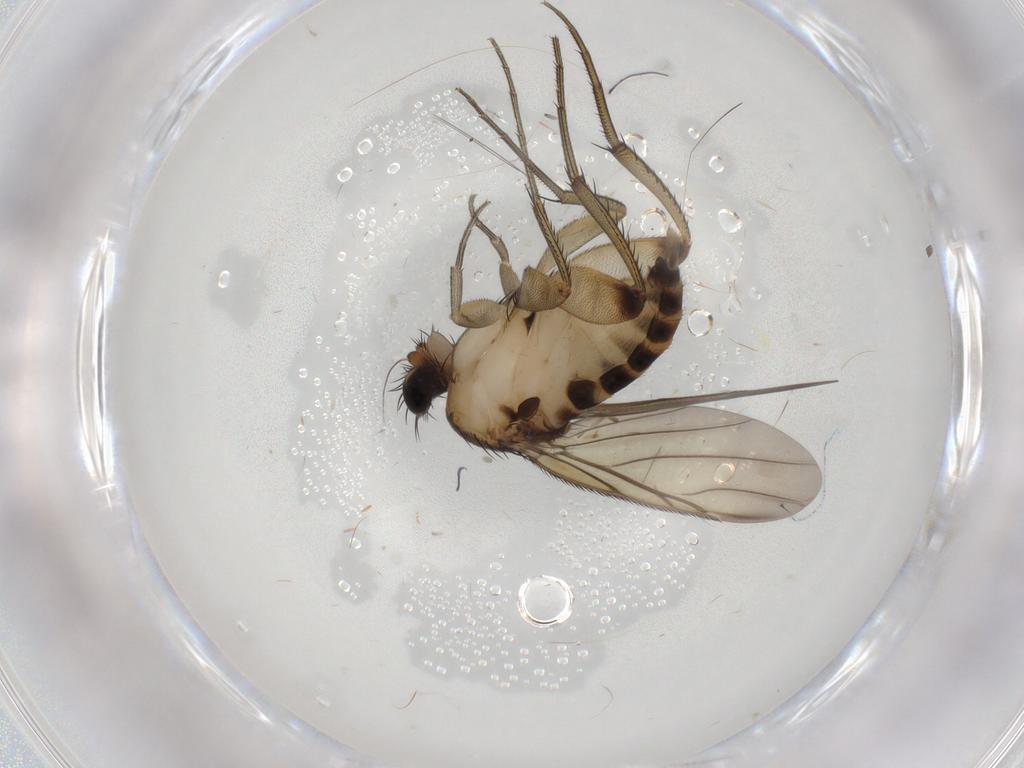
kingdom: Animalia
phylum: Arthropoda
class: Insecta
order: Diptera
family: Phoridae
